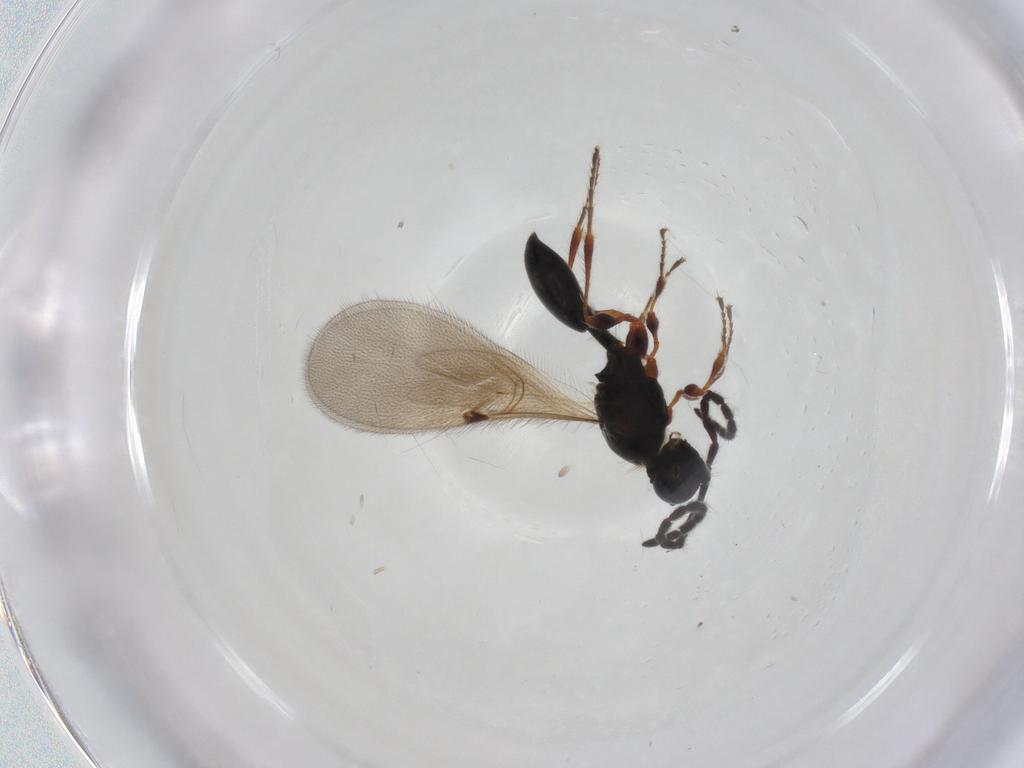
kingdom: Animalia
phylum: Arthropoda
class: Insecta
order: Hymenoptera
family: Diapriidae
